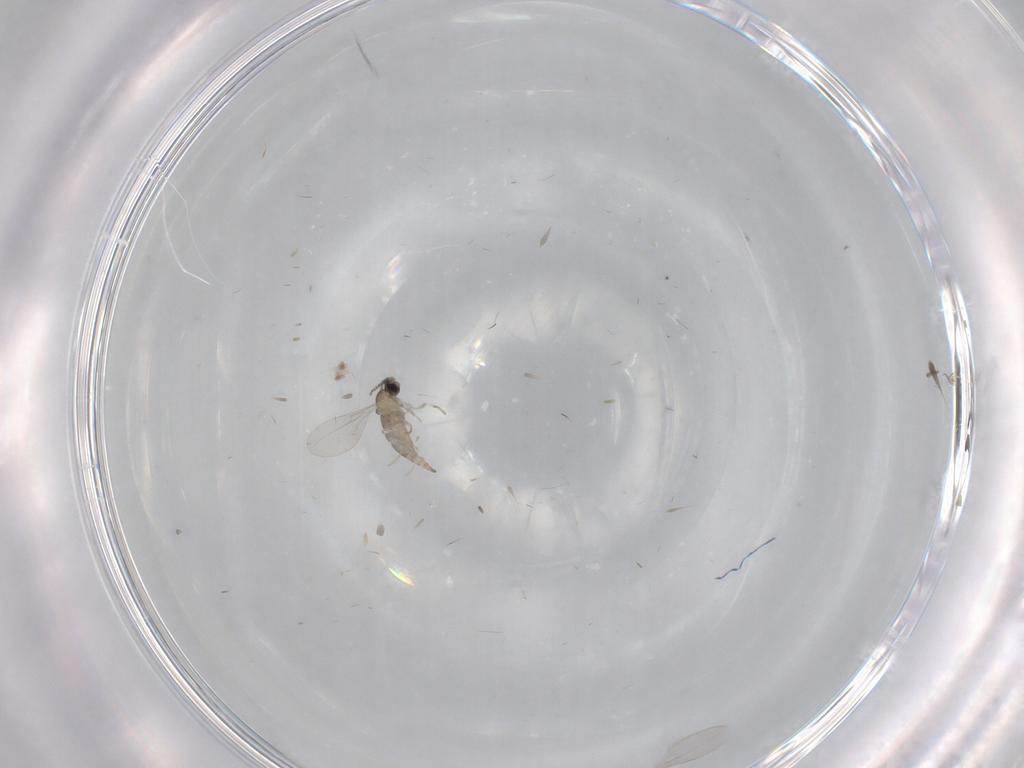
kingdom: Animalia
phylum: Arthropoda
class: Insecta
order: Diptera
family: Cecidomyiidae
